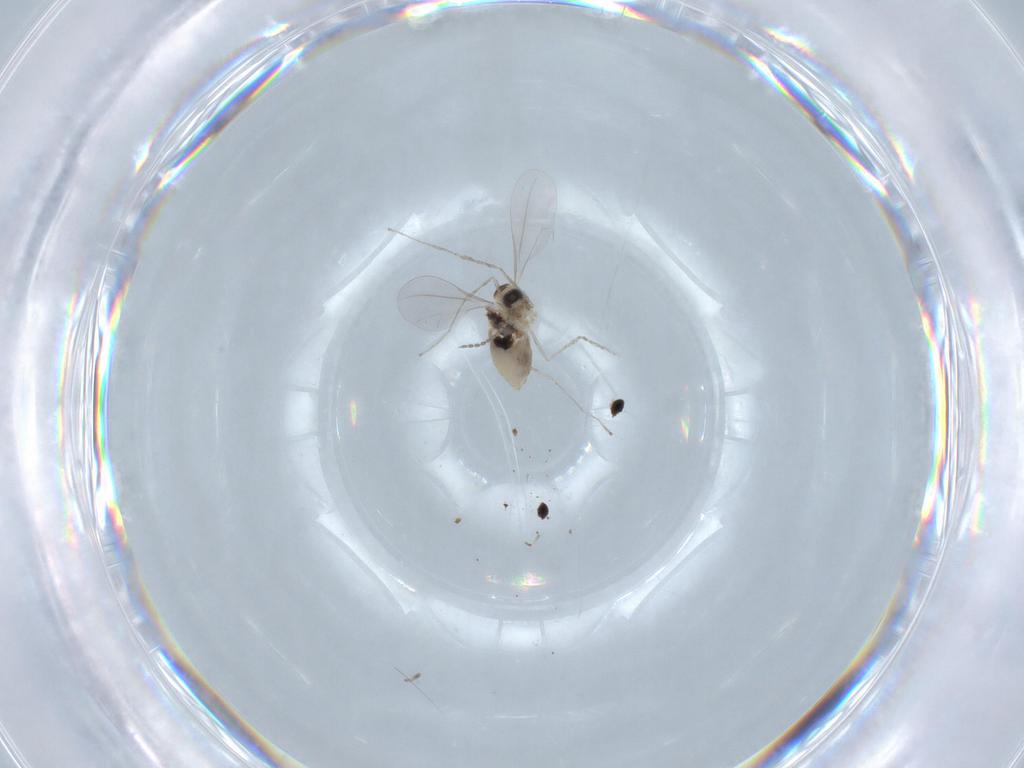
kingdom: Animalia
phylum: Arthropoda
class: Insecta
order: Diptera
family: Cecidomyiidae
